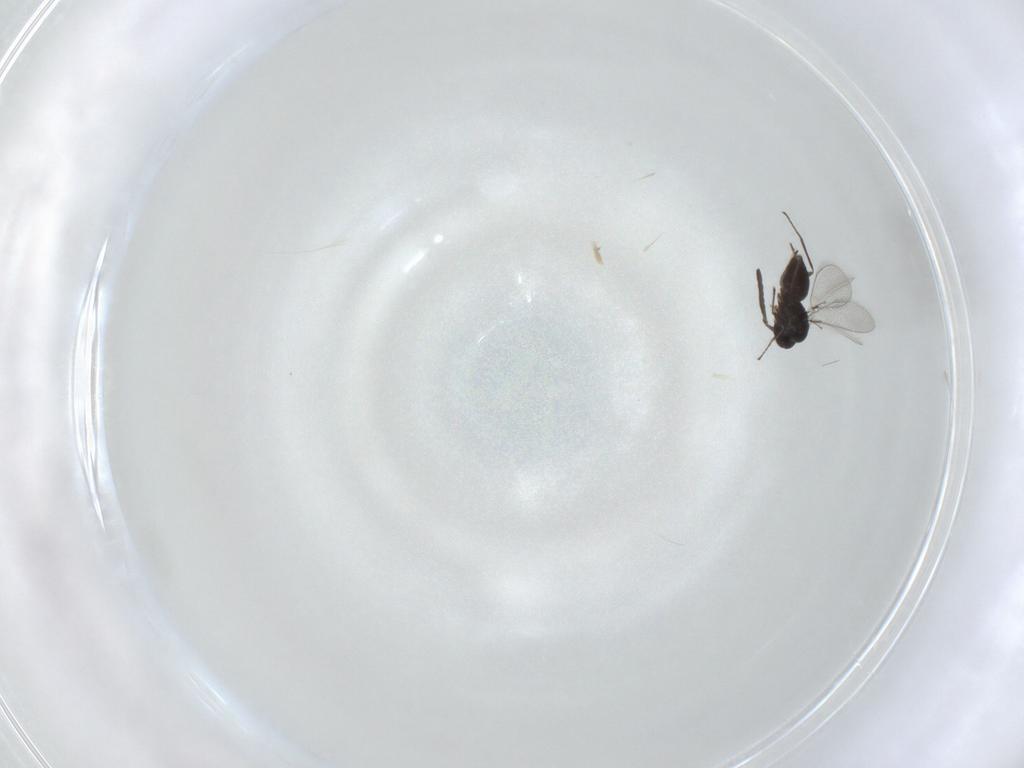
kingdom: Animalia
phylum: Arthropoda
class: Insecta
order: Hymenoptera
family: Mymaridae
